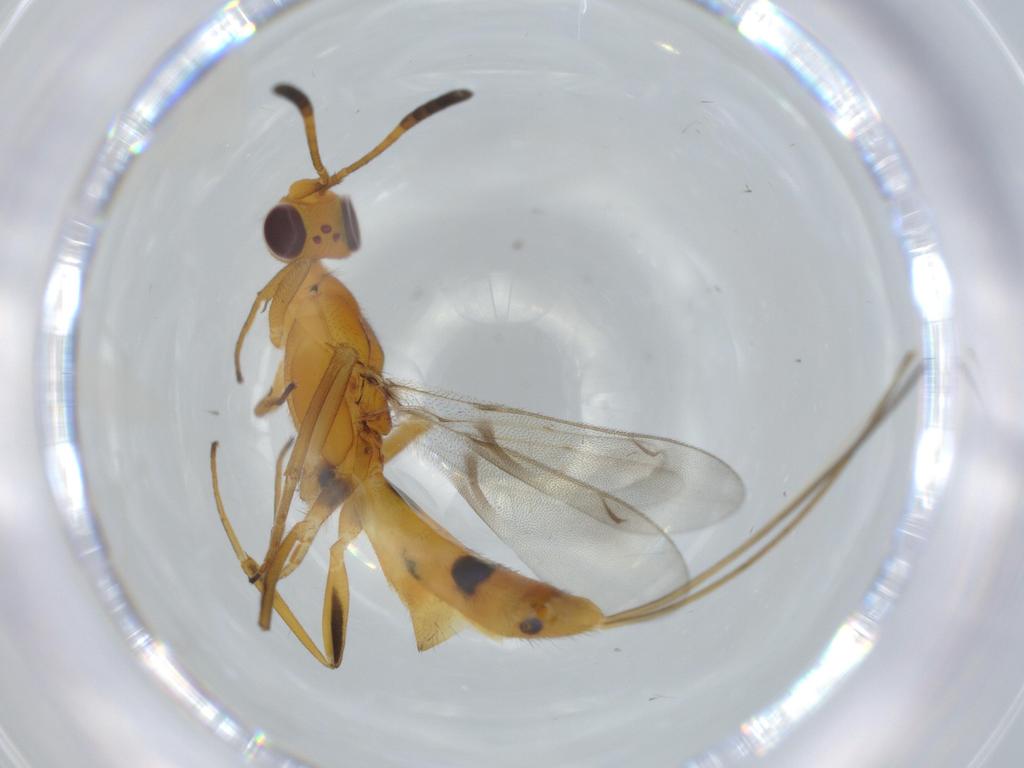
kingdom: Animalia
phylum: Arthropoda
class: Insecta
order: Hymenoptera
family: Eupelmidae
